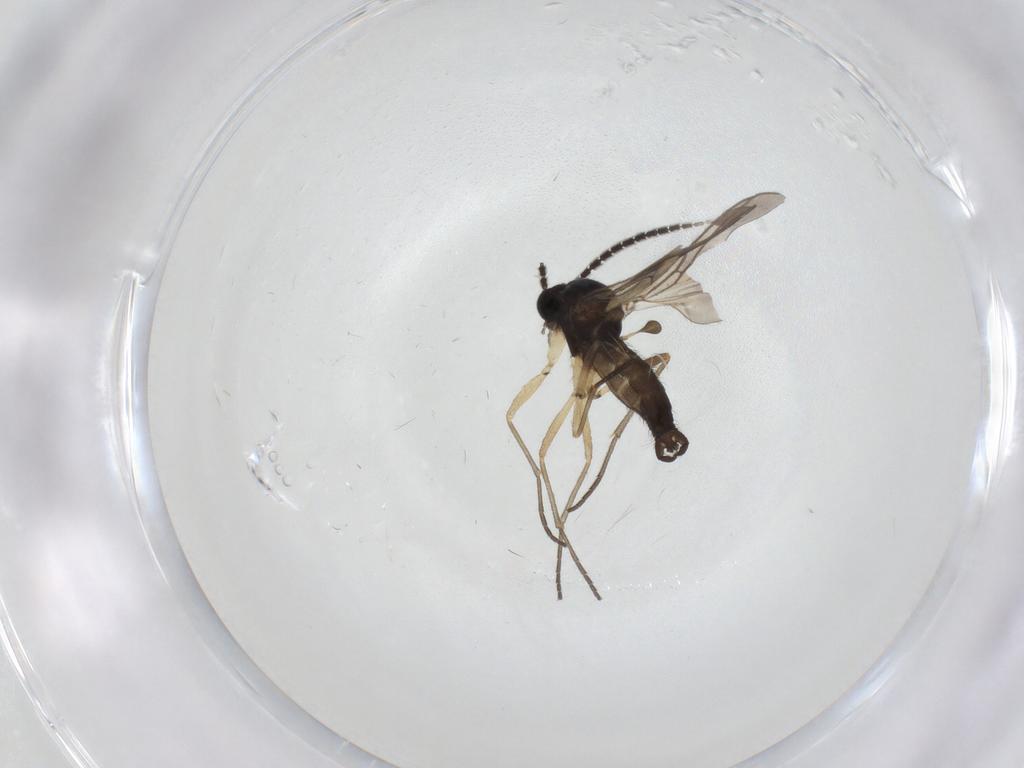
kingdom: Animalia
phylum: Arthropoda
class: Insecta
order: Diptera
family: Sciaridae
